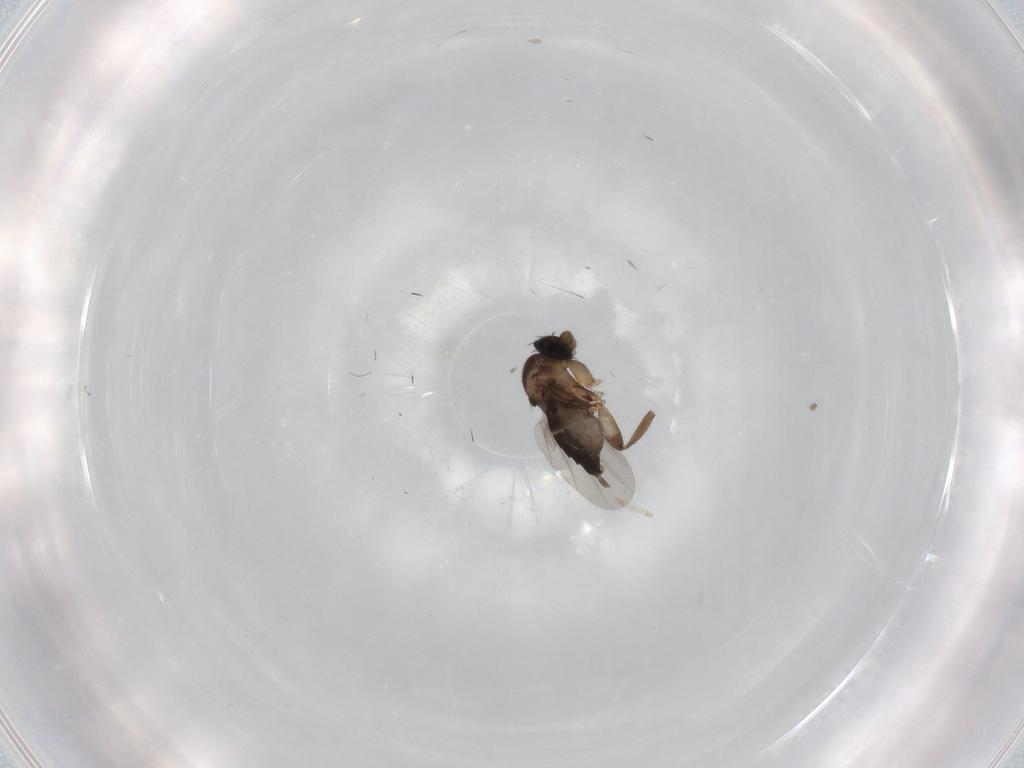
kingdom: Animalia
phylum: Arthropoda
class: Insecta
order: Diptera
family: Phoridae
